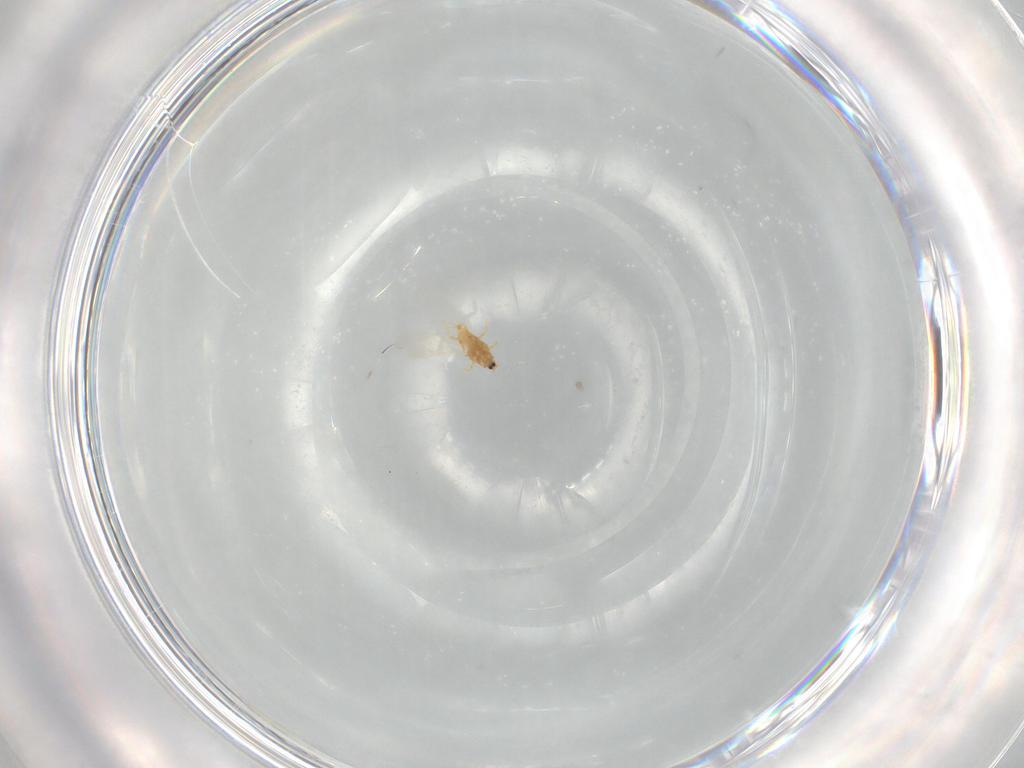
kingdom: Animalia
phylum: Arthropoda
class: Insecta
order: Hemiptera
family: Diaspididae
